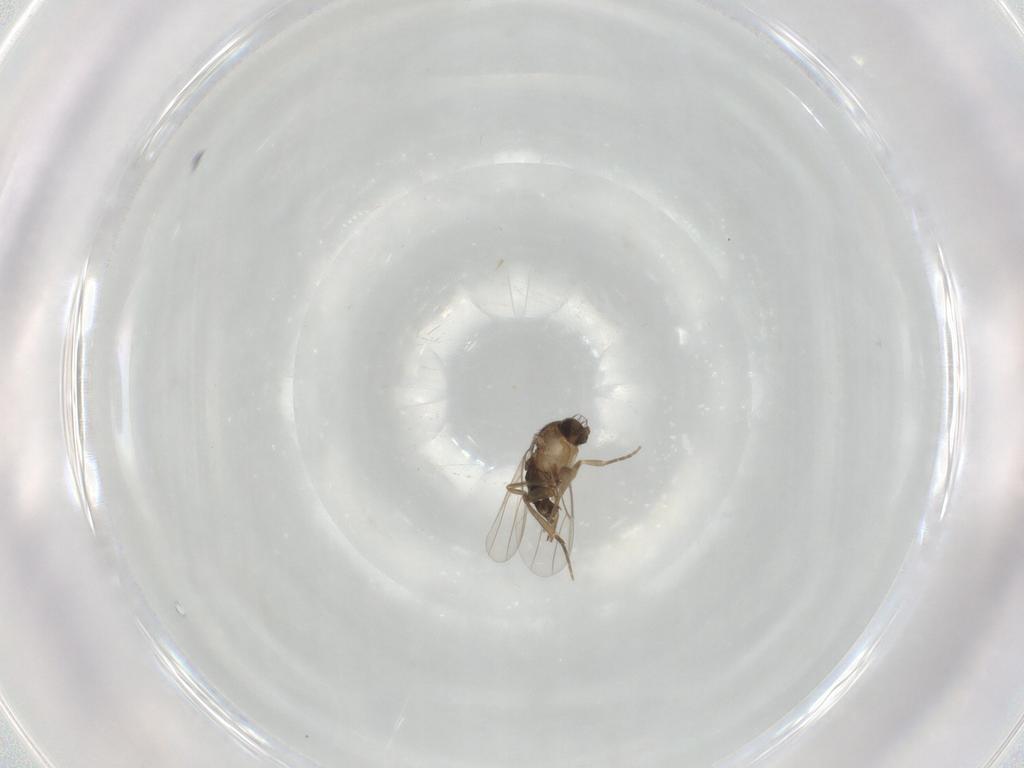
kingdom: Animalia
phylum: Arthropoda
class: Insecta
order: Diptera
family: Phoridae
